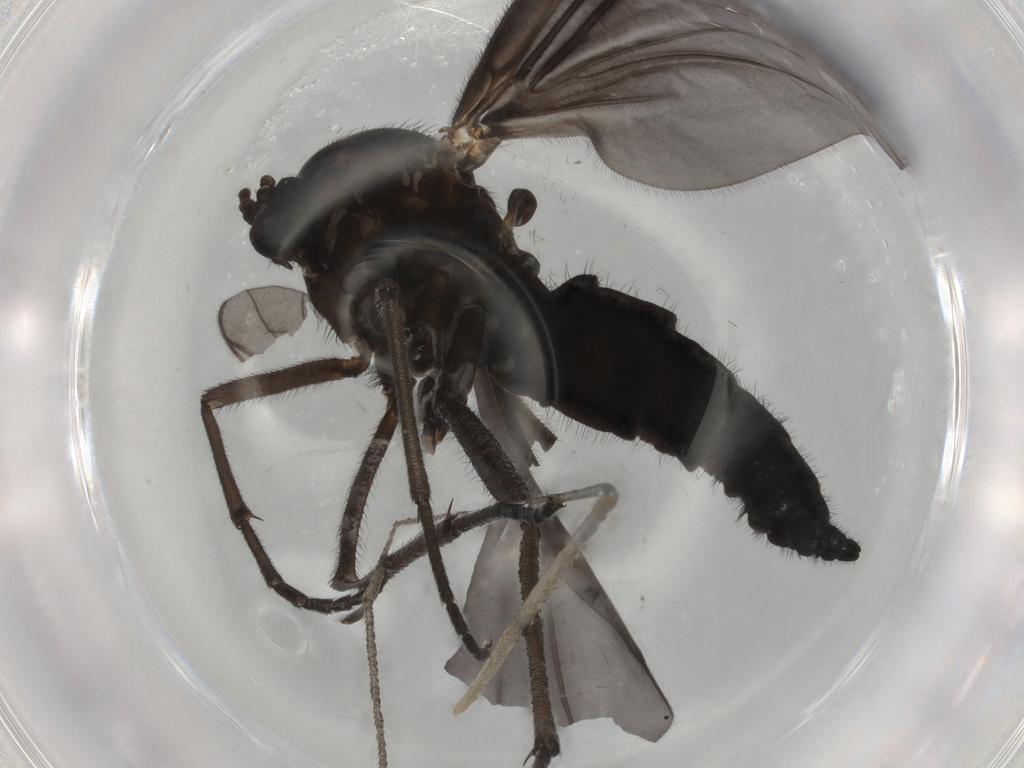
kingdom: Animalia
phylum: Arthropoda
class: Insecta
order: Diptera
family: Sciaridae
